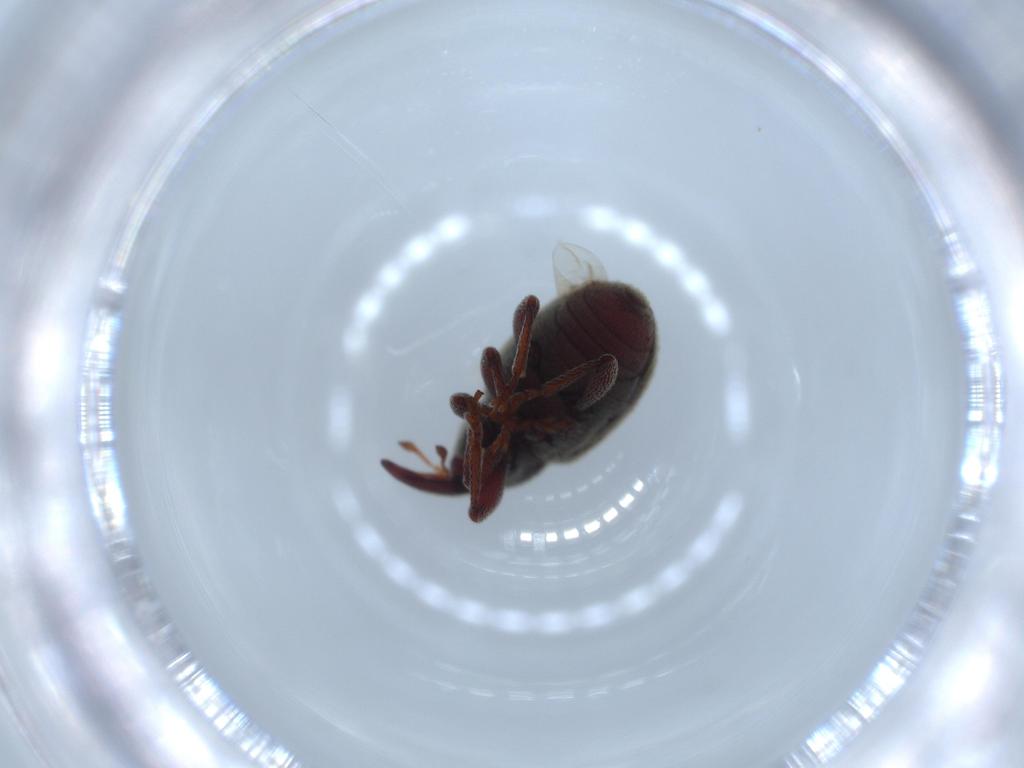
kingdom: Animalia
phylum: Arthropoda
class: Insecta
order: Coleoptera
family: Curculionidae
